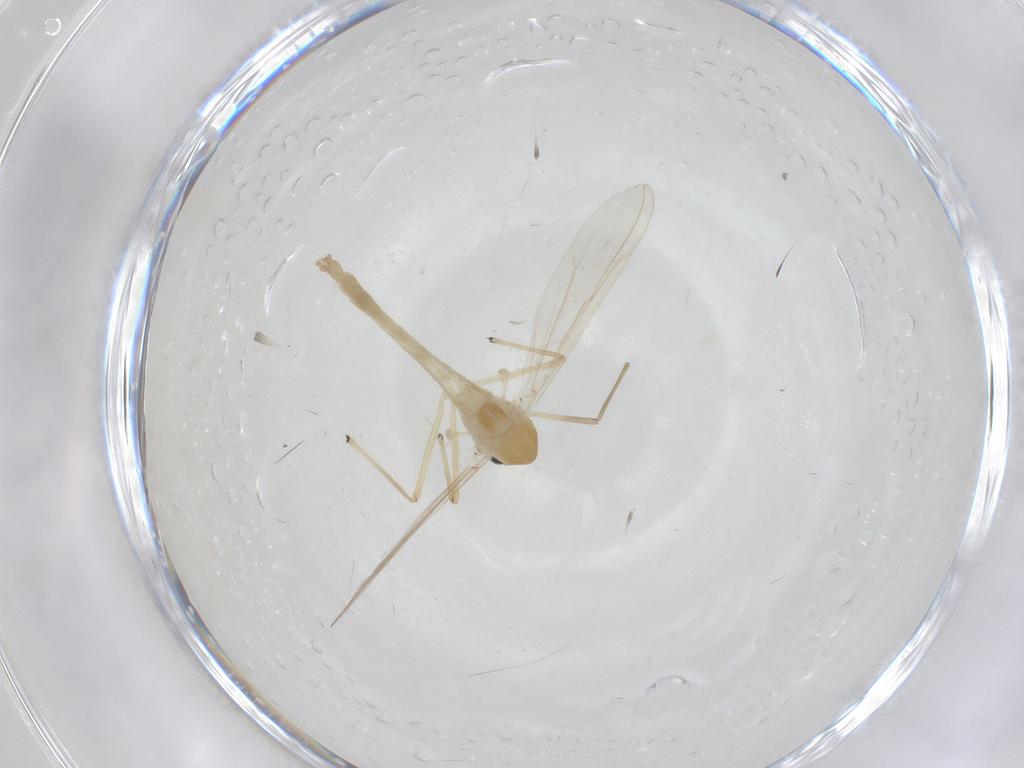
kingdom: Animalia
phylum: Arthropoda
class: Insecta
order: Diptera
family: Chironomidae
